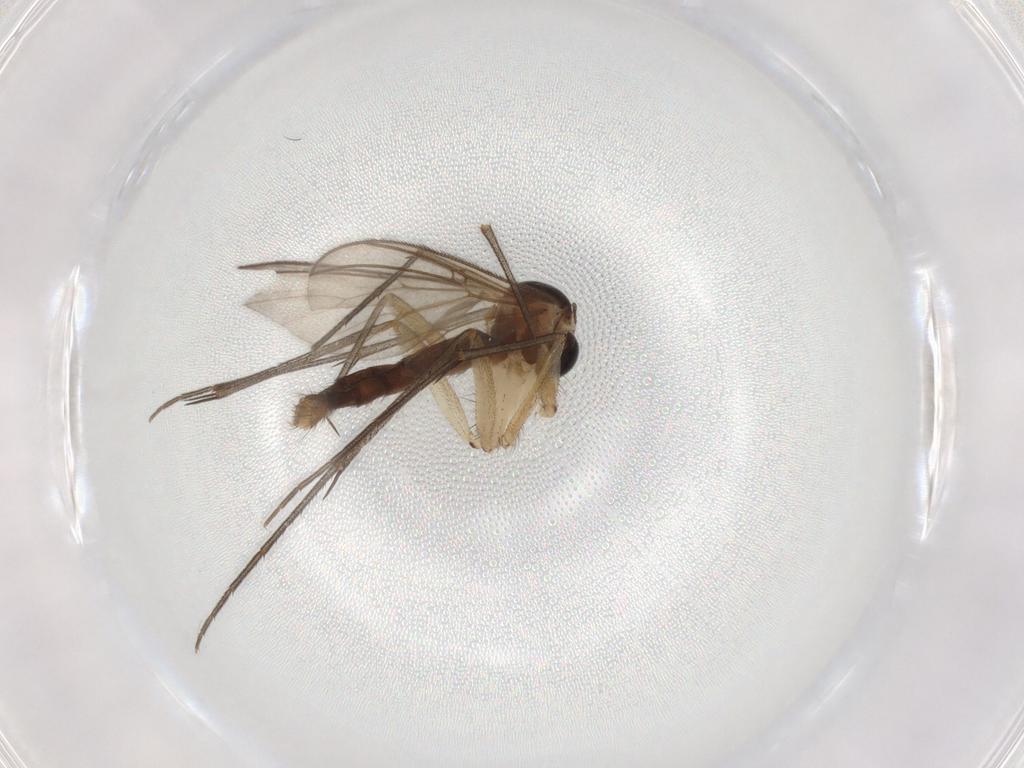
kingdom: Animalia
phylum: Arthropoda
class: Insecta
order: Diptera
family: Mycetophilidae
